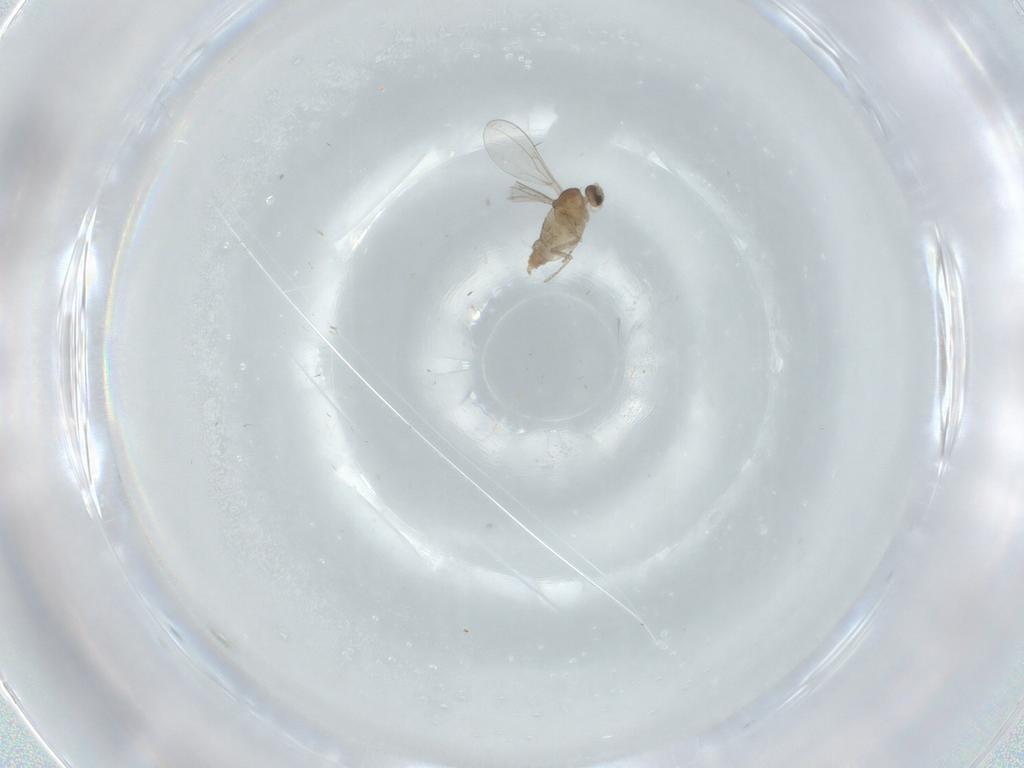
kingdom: Animalia
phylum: Arthropoda
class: Insecta
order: Diptera
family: Cecidomyiidae
